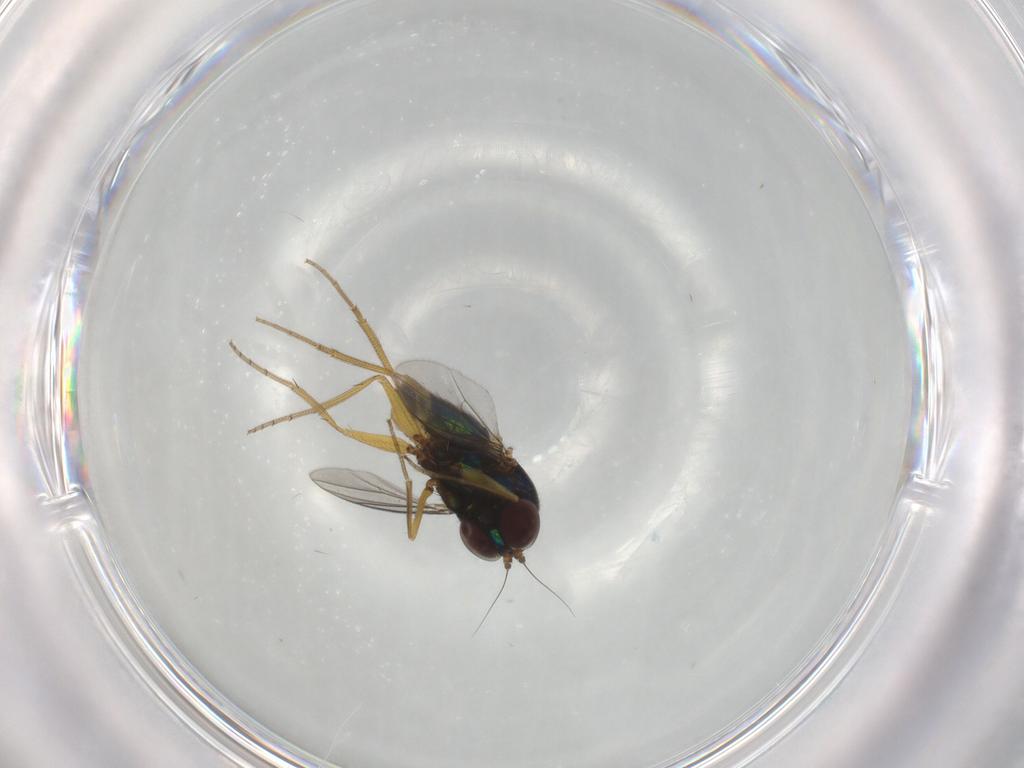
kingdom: Animalia
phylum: Arthropoda
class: Insecta
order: Diptera
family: Dolichopodidae
